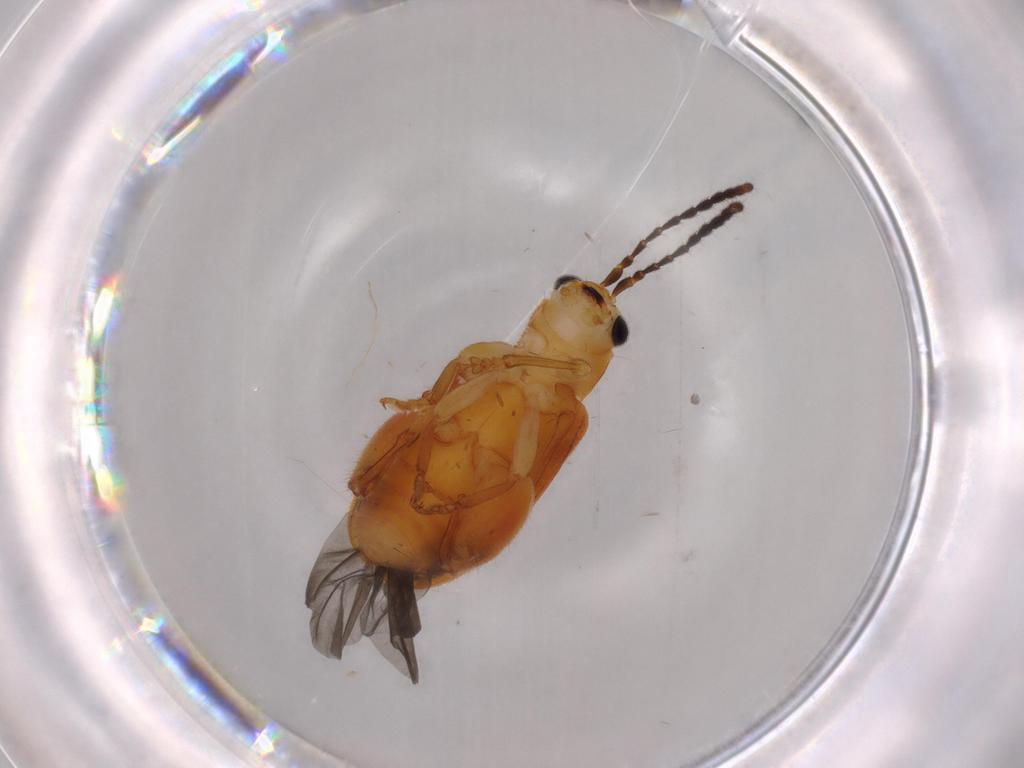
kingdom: Animalia
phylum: Arthropoda
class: Insecta
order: Coleoptera
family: Chrysomelidae
